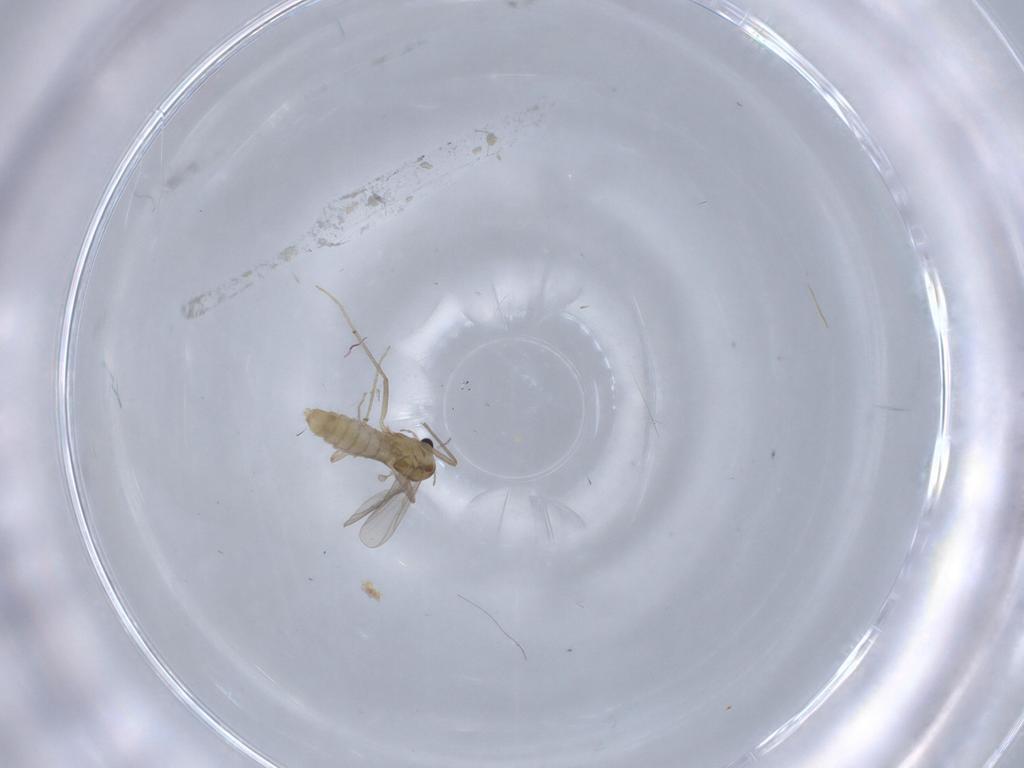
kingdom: Animalia
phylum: Arthropoda
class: Insecta
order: Diptera
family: Chironomidae
